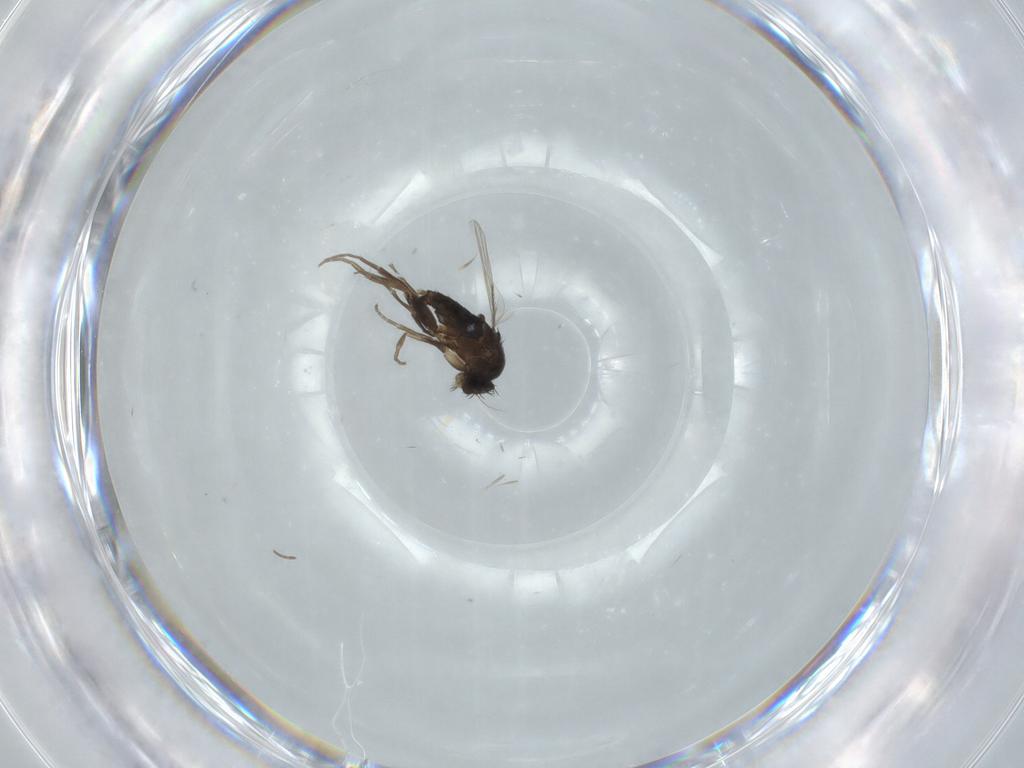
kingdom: Animalia
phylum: Arthropoda
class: Insecta
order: Diptera
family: Phoridae
